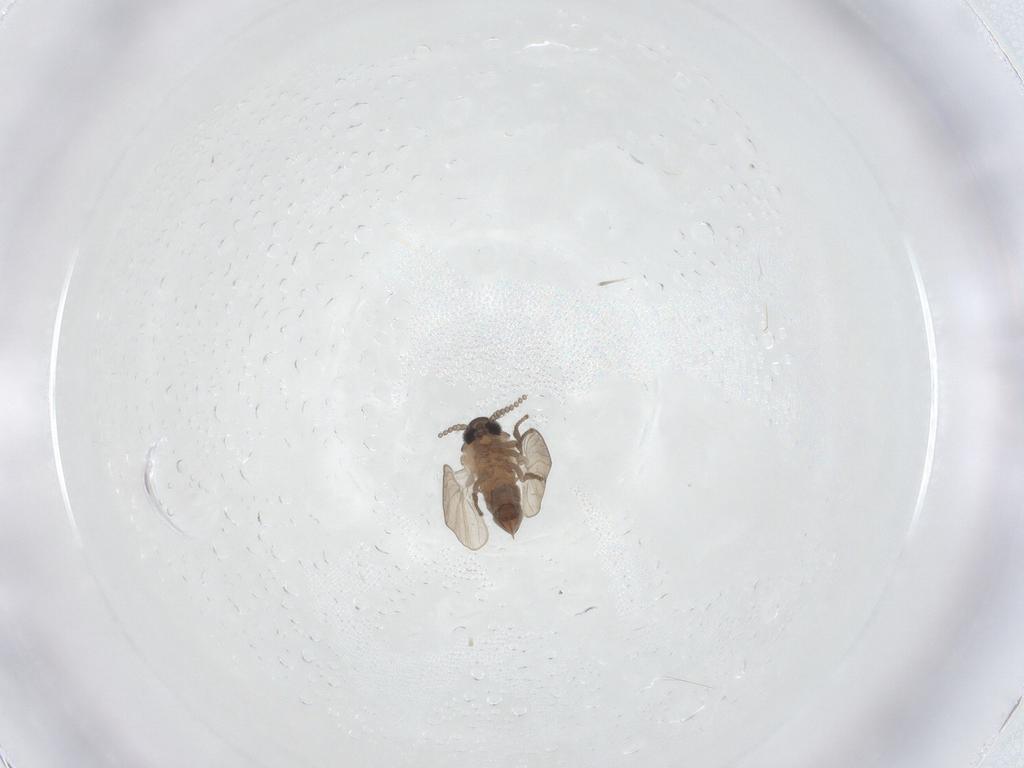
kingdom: Animalia
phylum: Arthropoda
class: Insecta
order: Diptera
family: Psychodidae
